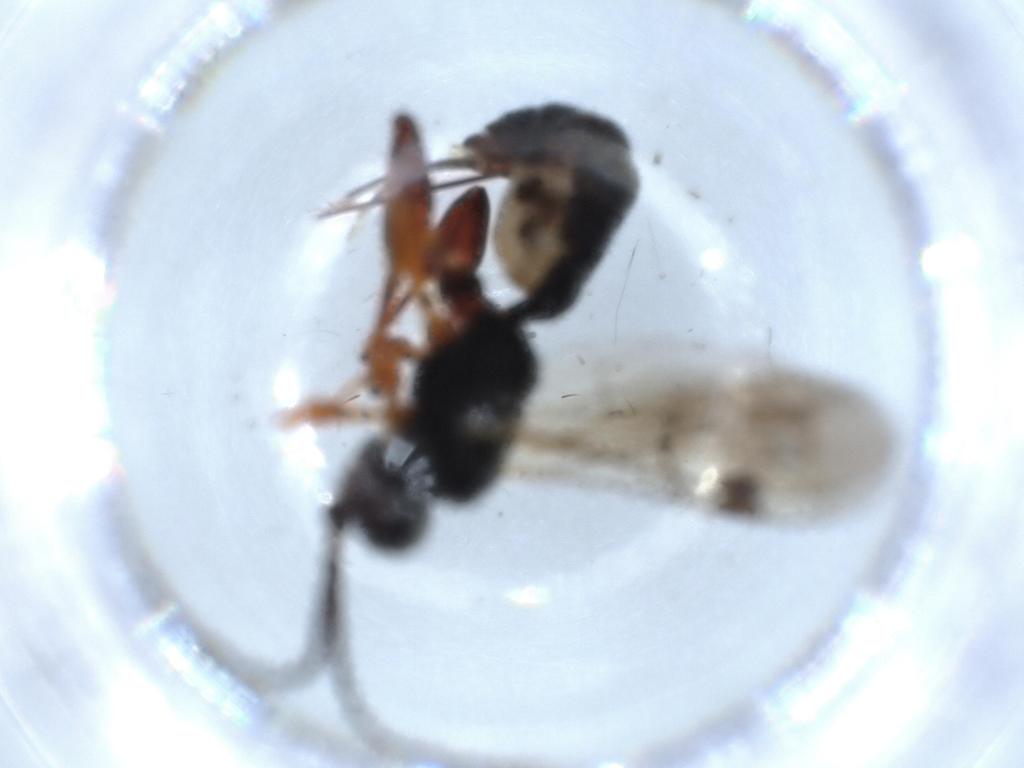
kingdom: Animalia
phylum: Arthropoda
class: Insecta
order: Hymenoptera
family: Ichneumonidae
